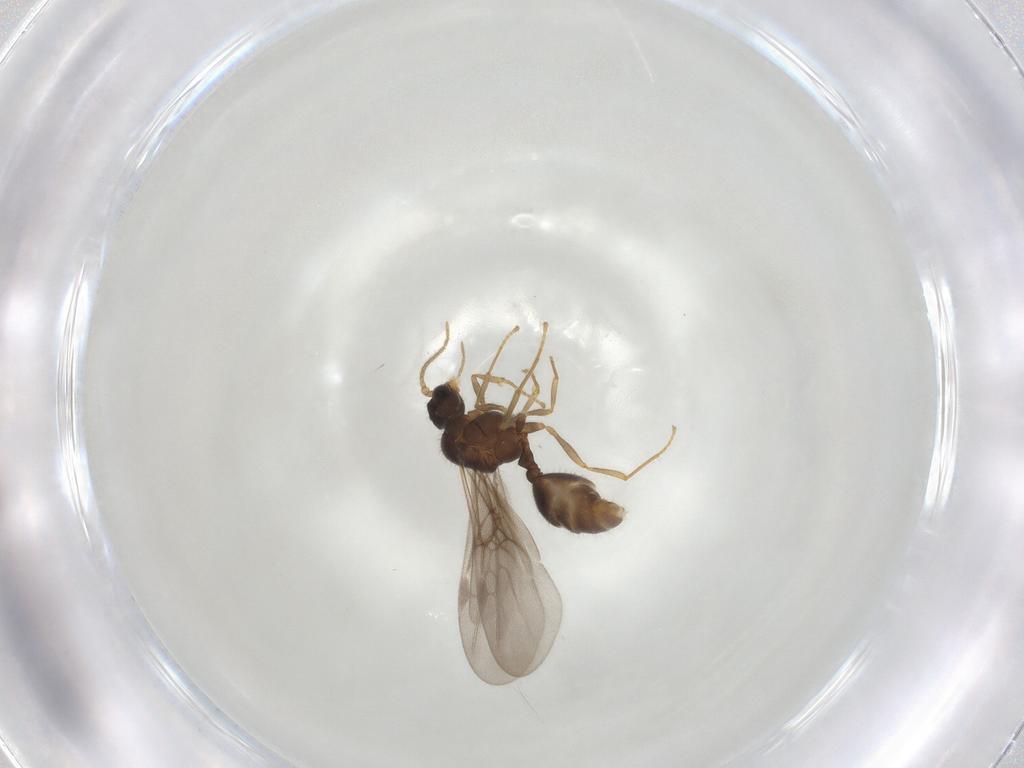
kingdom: Animalia
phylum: Arthropoda
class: Insecta
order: Hymenoptera
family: Formicidae
